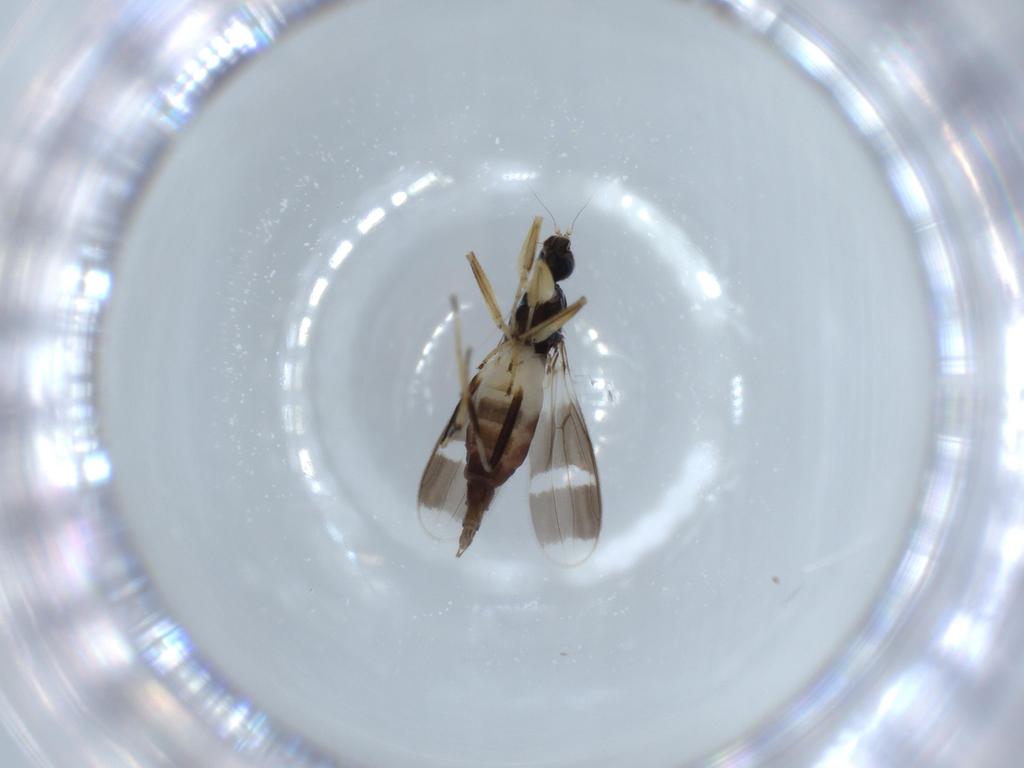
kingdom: Animalia
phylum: Arthropoda
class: Insecta
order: Diptera
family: Hybotidae
